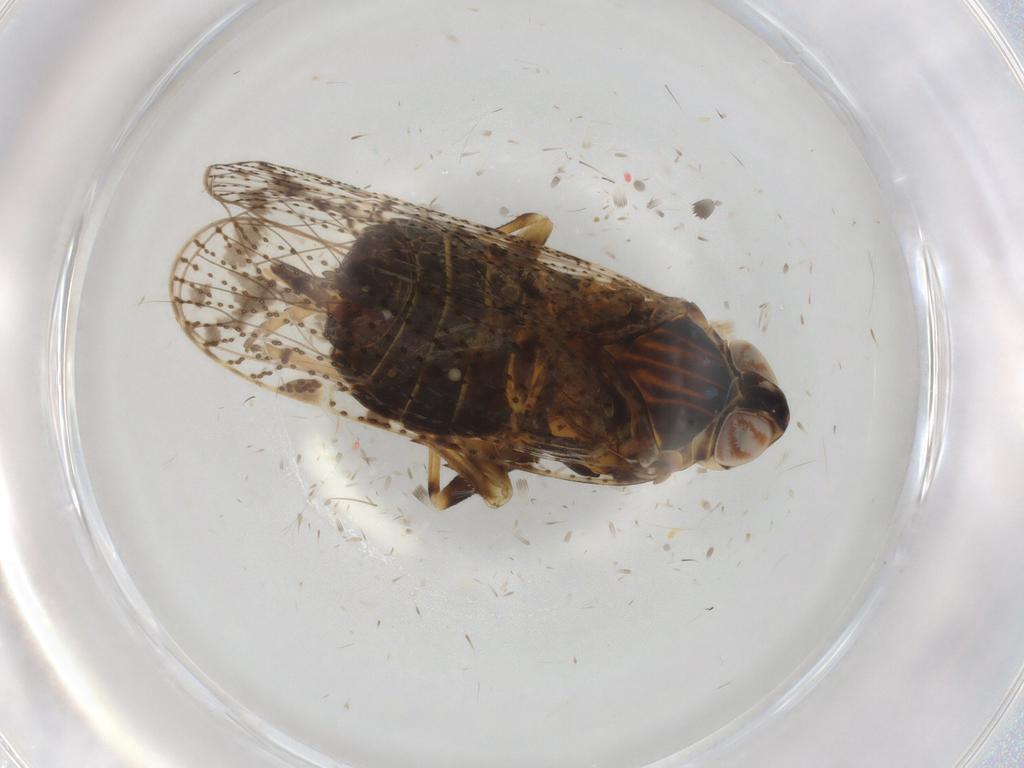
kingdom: Animalia
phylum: Arthropoda
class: Insecta
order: Hemiptera
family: Cixiidae
